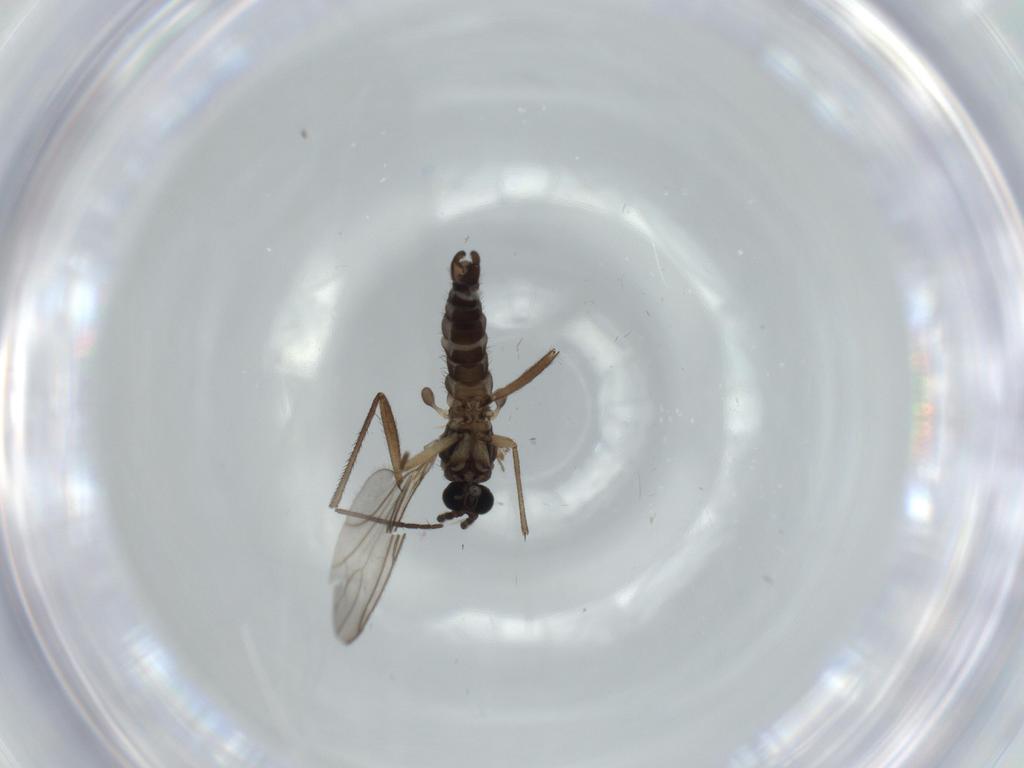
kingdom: Animalia
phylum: Arthropoda
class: Insecta
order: Diptera
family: Sciaridae
